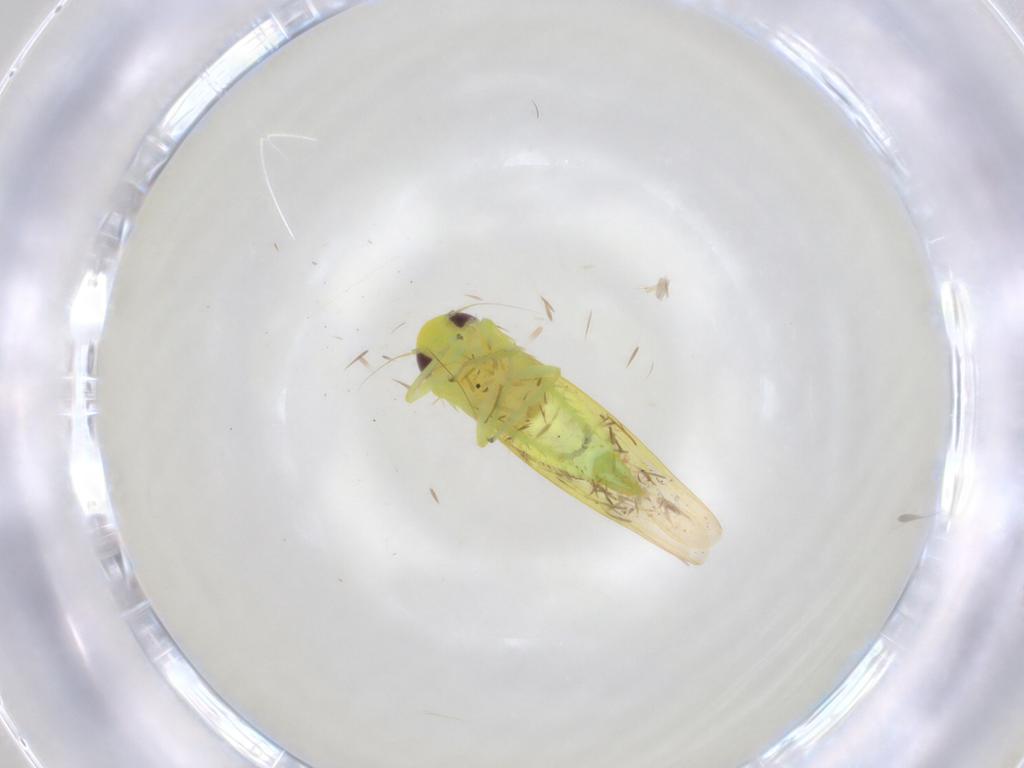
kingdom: Animalia
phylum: Arthropoda
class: Insecta
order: Hemiptera
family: Cicadellidae
